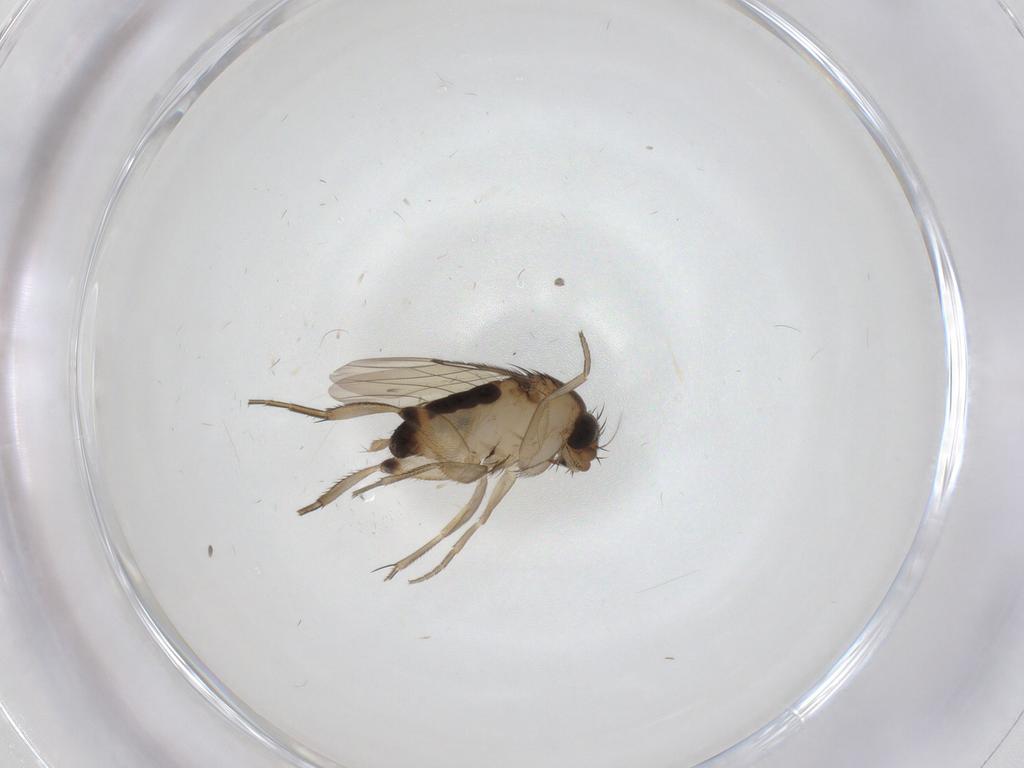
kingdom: Animalia
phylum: Arthropoda
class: Insecta
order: Diptera
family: Phoridae
